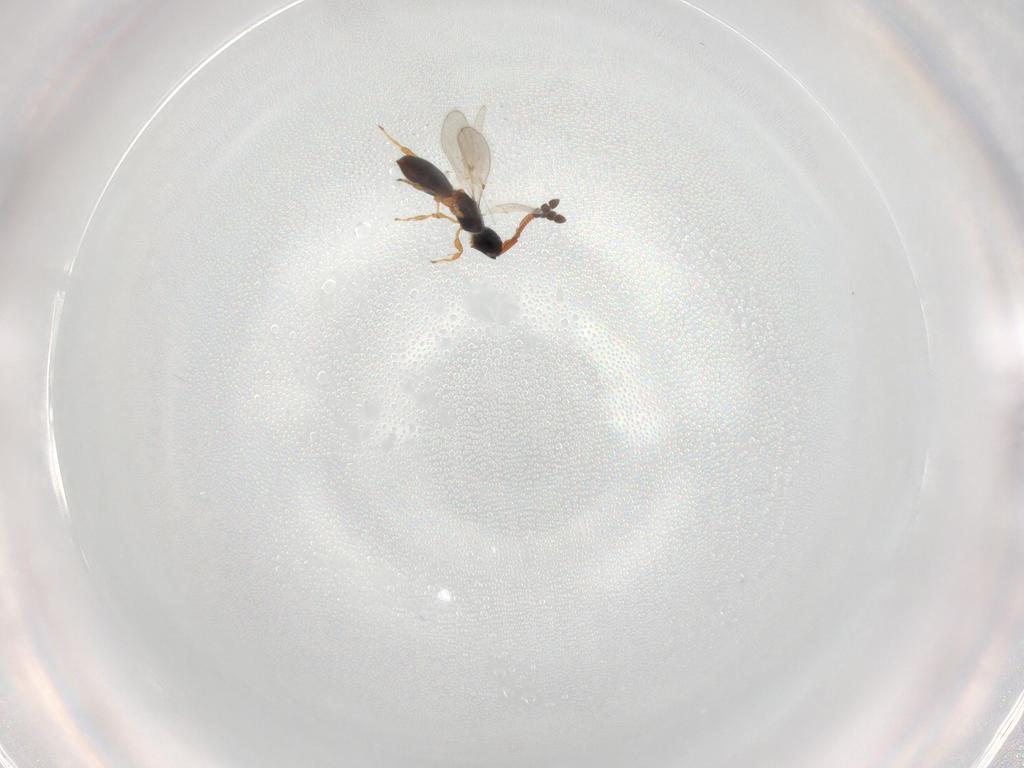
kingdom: Animalia
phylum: Arthropoda
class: Insecta
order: Hymenoptera
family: Diapriidae
